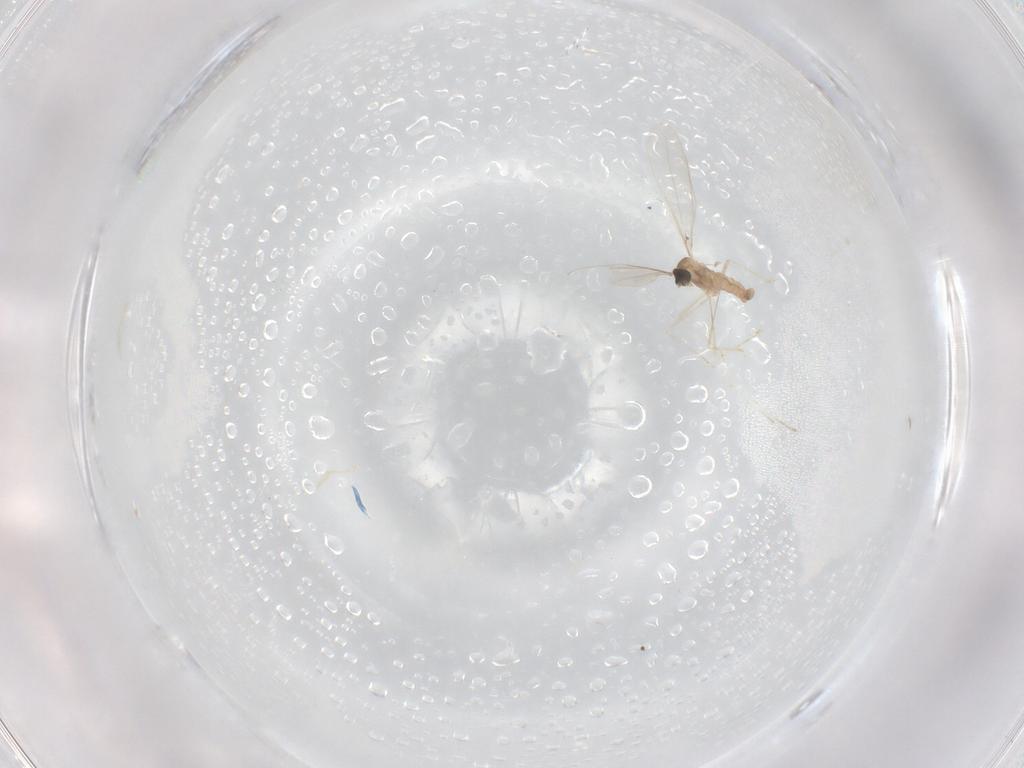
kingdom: Animalia
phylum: Arthropoda
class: Insecta
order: Diptera
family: Cecidomyiidae
